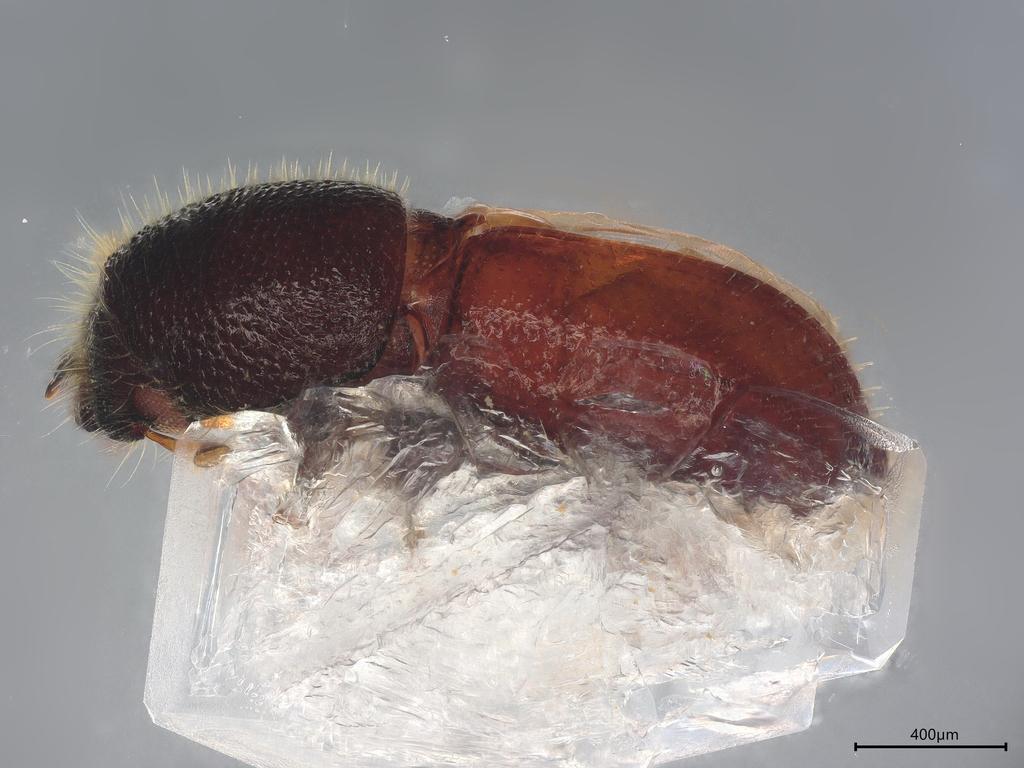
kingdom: Animalia
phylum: Arthropoda
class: Insecta
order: Coleoptera
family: Curculionidae
